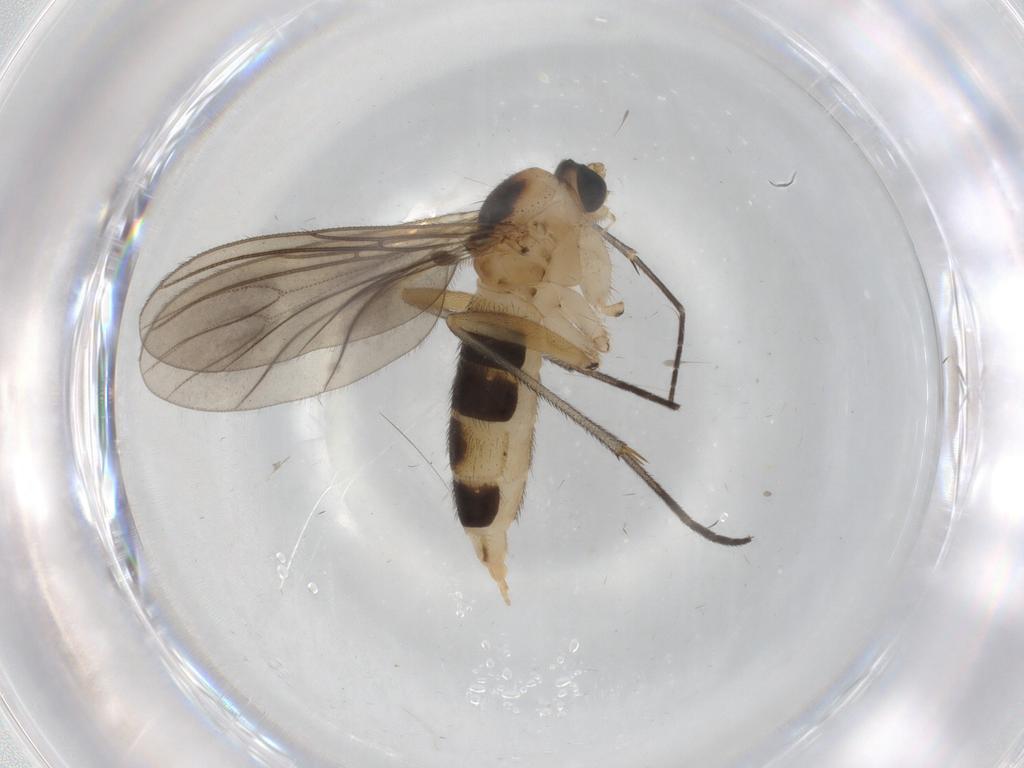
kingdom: Animalia
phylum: Arthropoda
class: Insecta
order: Diptera
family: Sciaridae
